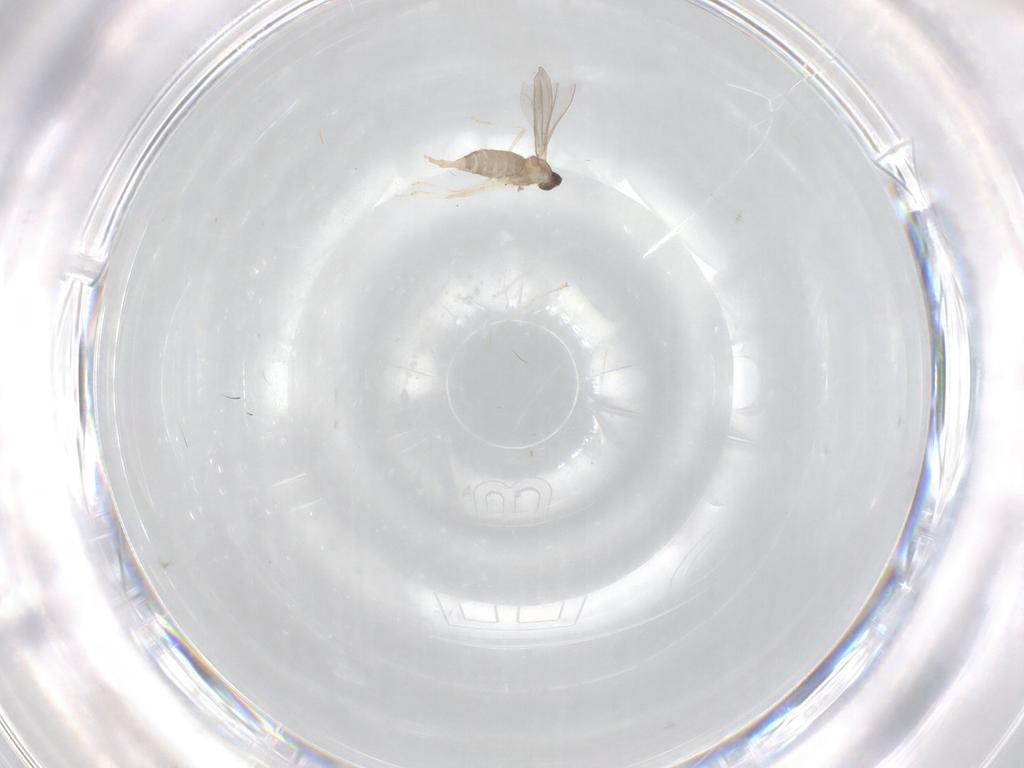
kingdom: Animalia
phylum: Arthropoda
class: Insecta
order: Diptera
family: Cecidomyiidae
